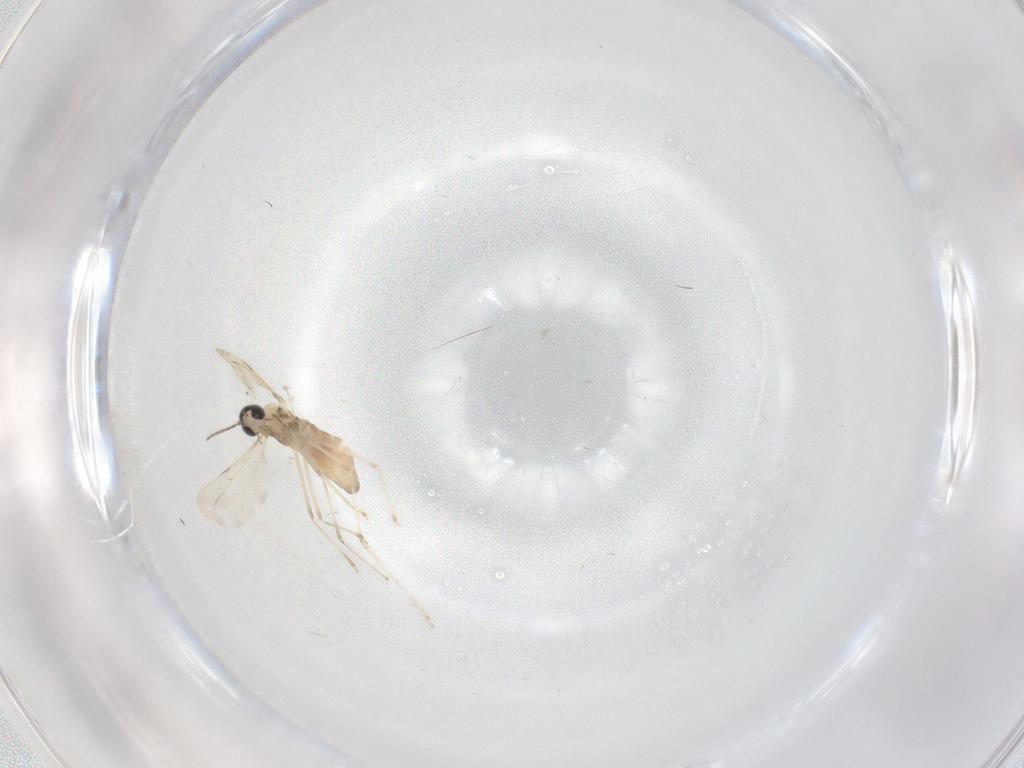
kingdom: Animalia
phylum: Arthropoda
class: Insecta
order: Diptera
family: Cecidomyiidae
